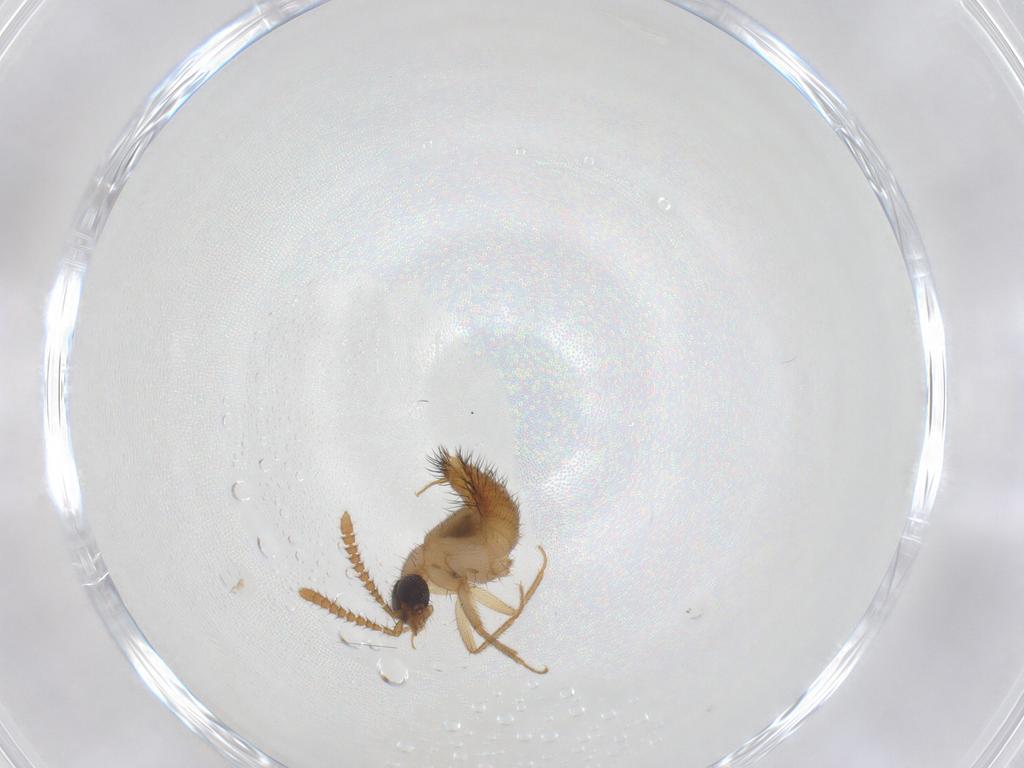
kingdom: Animalia
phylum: Arthropoda
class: Insecta
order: Coleoptera
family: Staphylinidae
